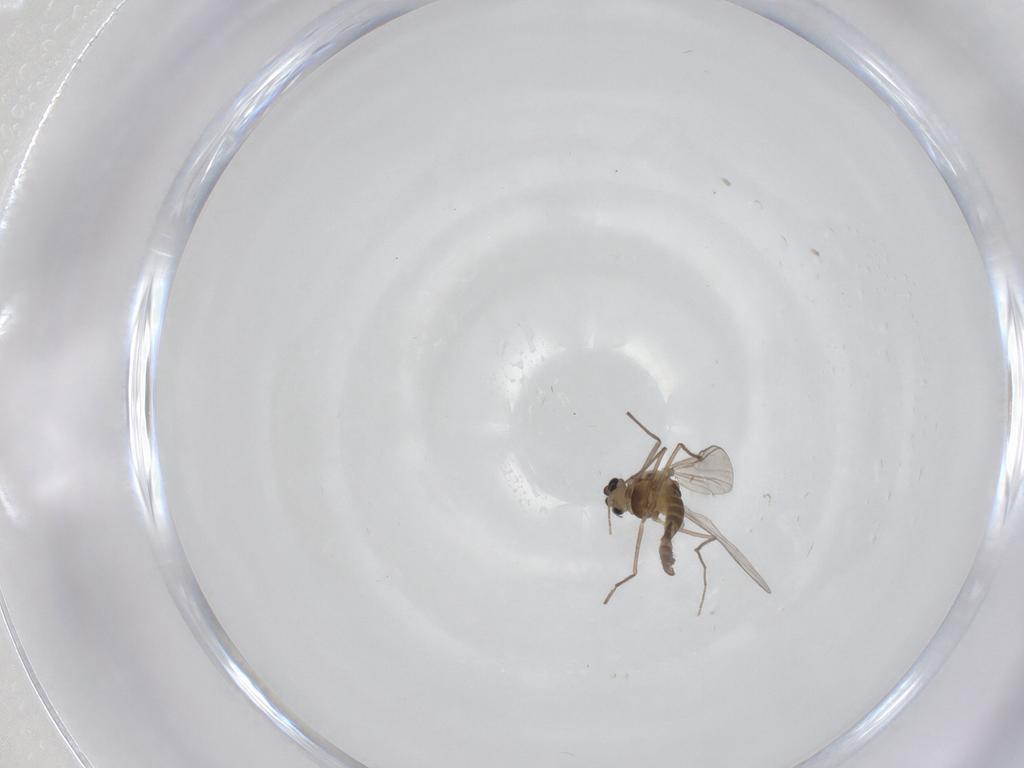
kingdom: Animalia
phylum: Arthropoda
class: Insecta
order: Diptera
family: Chironomidae
